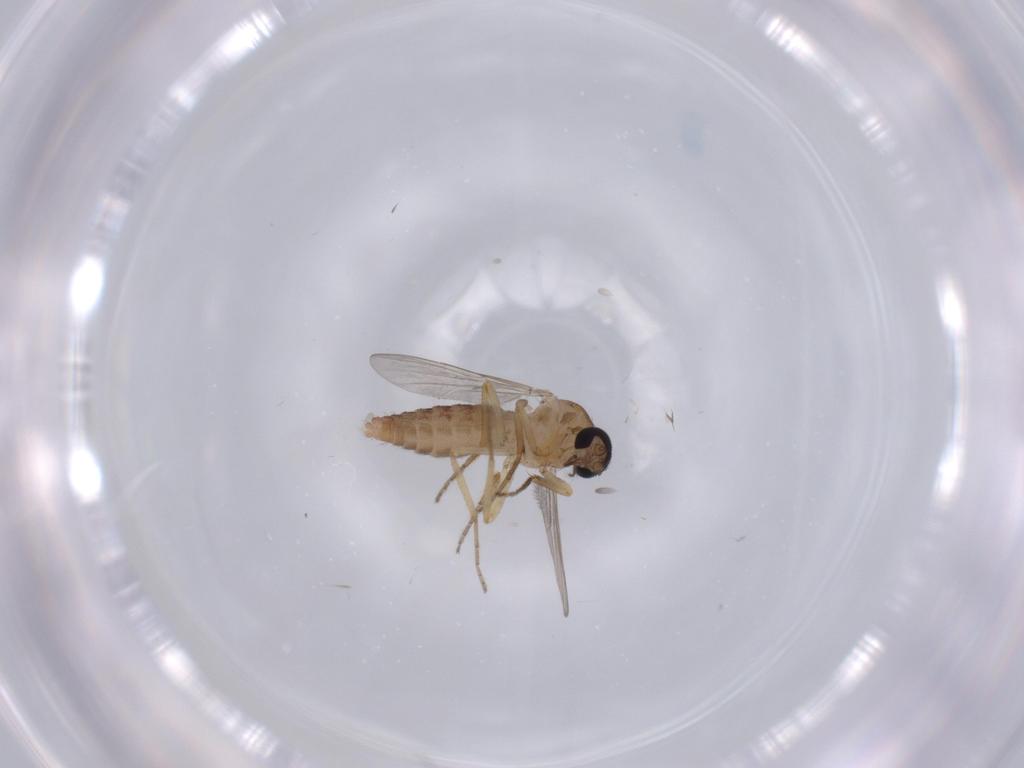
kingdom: Animalia
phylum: Arthropoda
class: Insecta
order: Diptera
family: Ceratopogonidae
